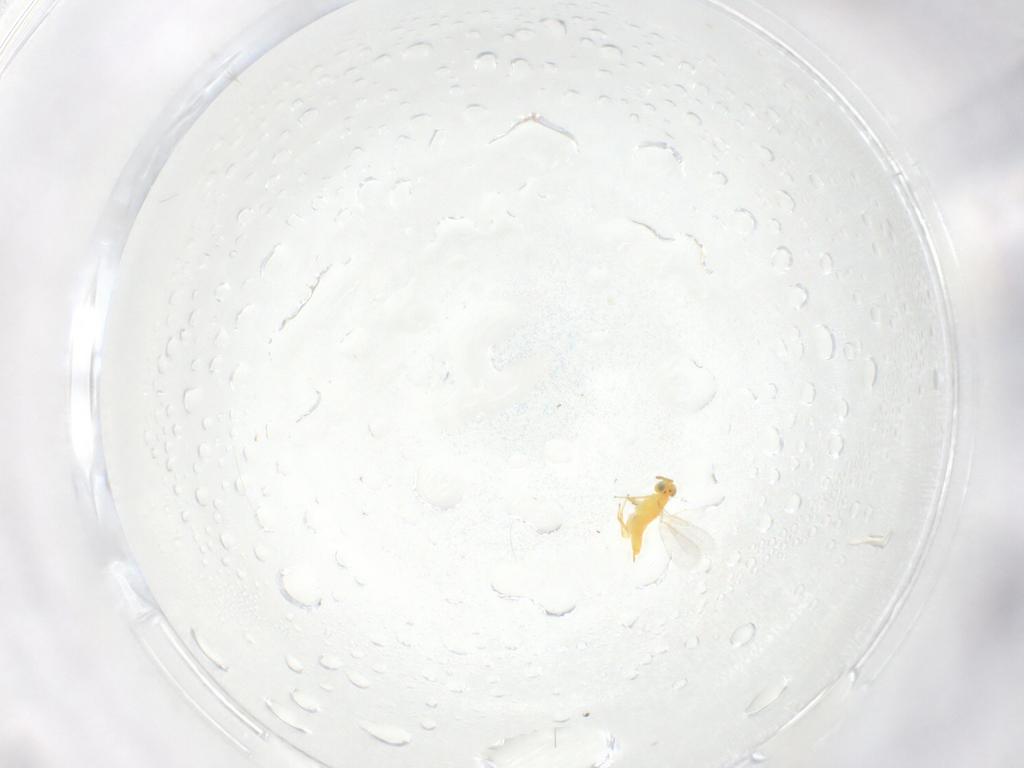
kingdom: Animalia
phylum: Arthropoda
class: Insecta
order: Hymenoptera
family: Aphelinidae
